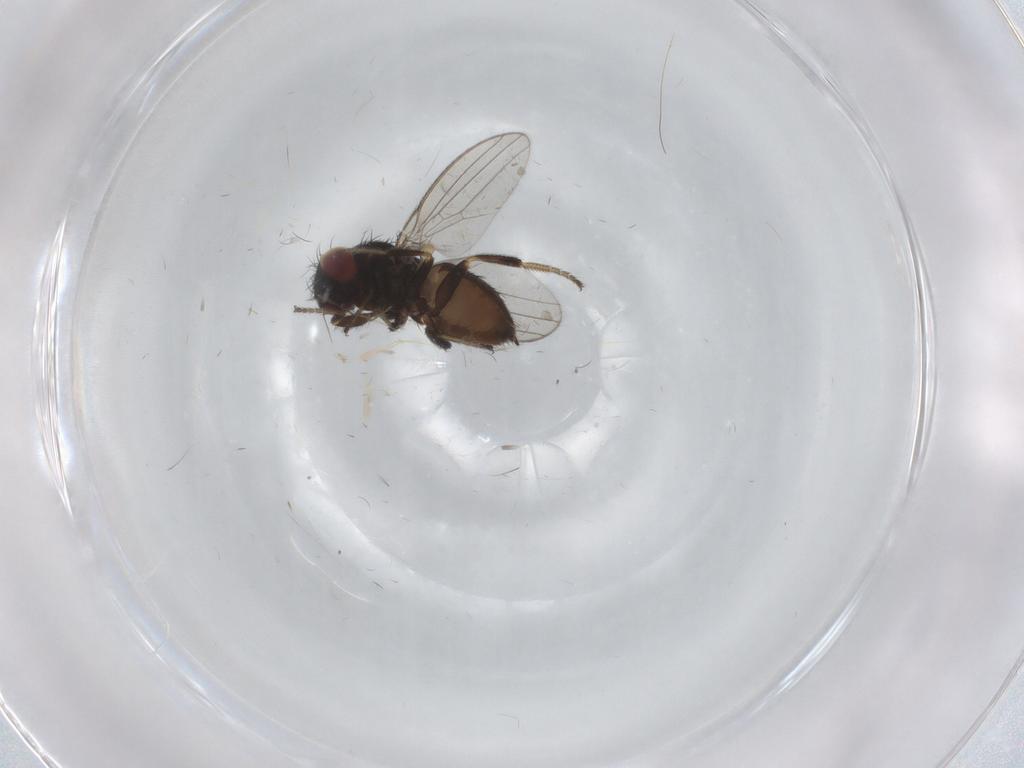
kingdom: Animalia
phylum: Arthropoda
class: Insecta
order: Diptera
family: Milichiidae
